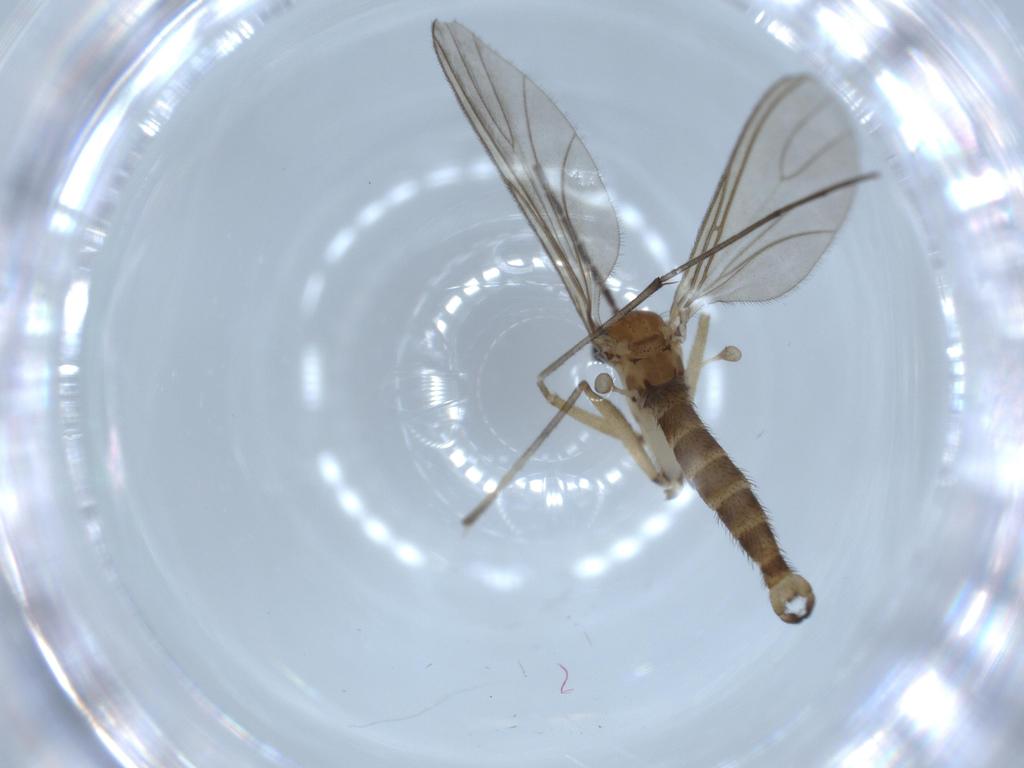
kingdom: Animalia
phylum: Arthropoda
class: Insecta
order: Diptera
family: Sciaridae
